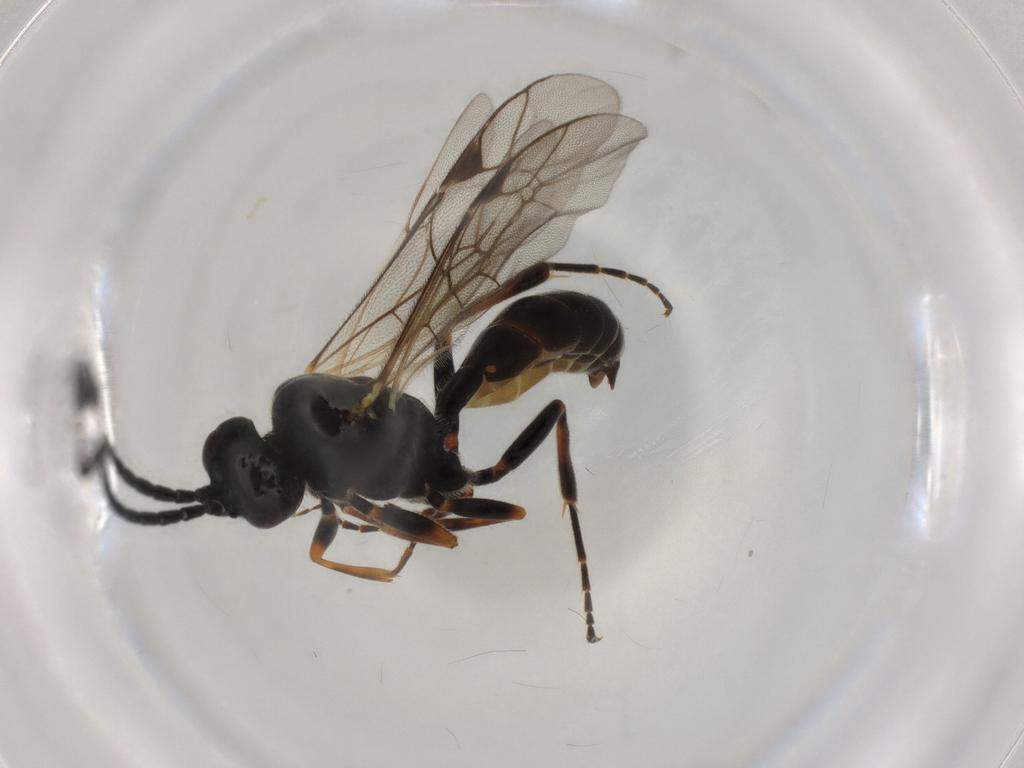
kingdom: Animalia
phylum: Arthropoda
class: Insecta
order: Hymenoptera
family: Ichneumonidae
